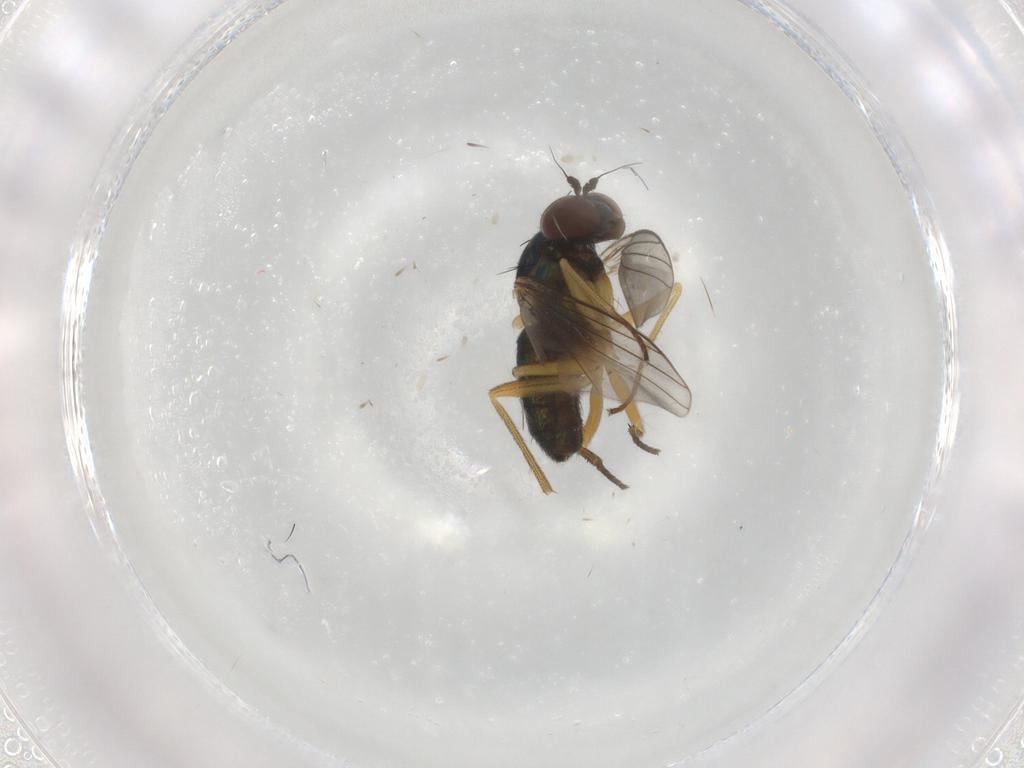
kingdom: Animalia
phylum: Arthropoda
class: Insecta
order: Diptera
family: Dolichopodidae
